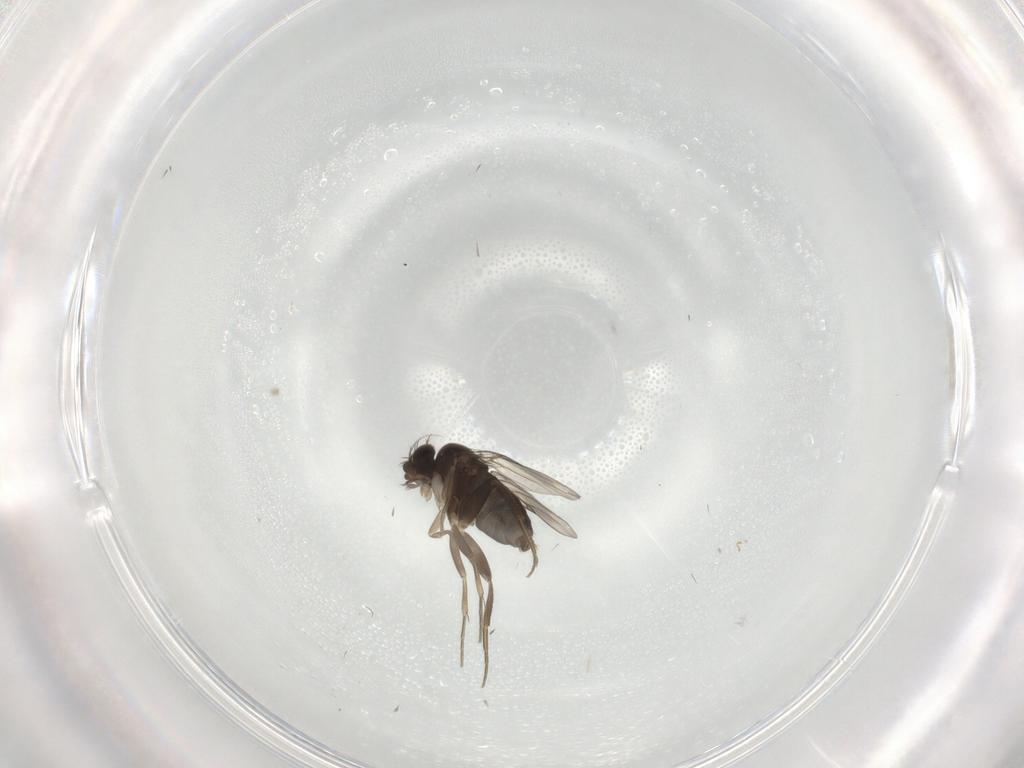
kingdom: Animalia
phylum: Arthropoda
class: Insecta
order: Diptera
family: Phoridae
